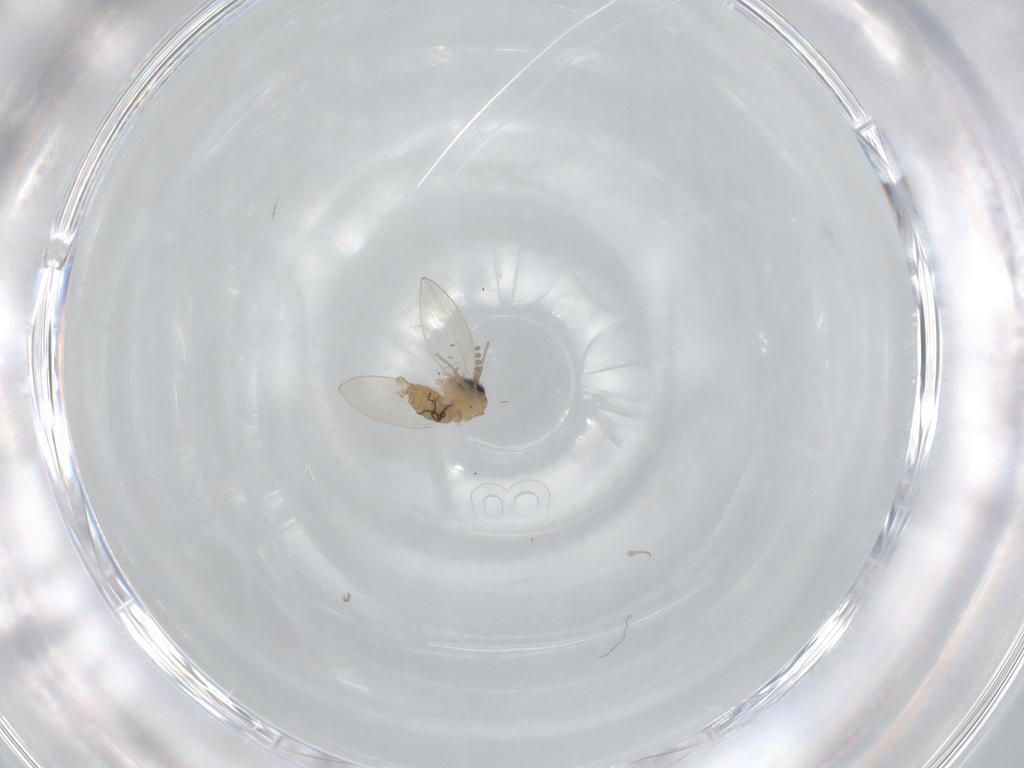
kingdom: Animalia
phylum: Arthropoda
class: Insecta
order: Diptera
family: Psychodidae
